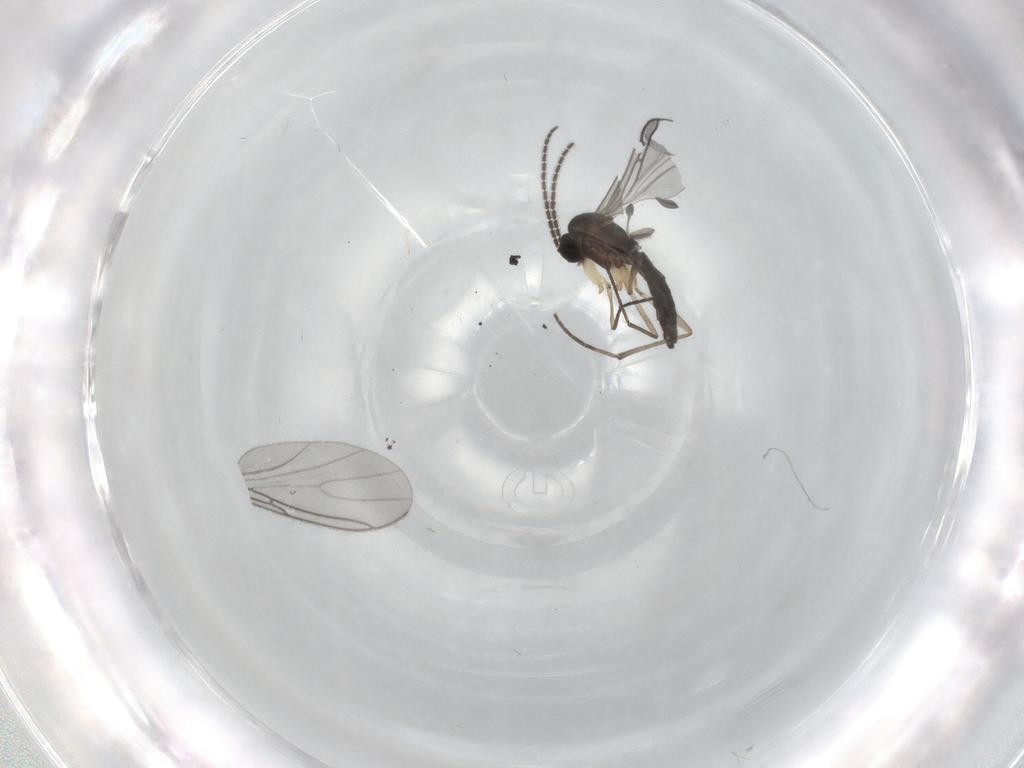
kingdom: Animalia
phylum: Arthropoda
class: Insecta
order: Diptera
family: Sciaridae
